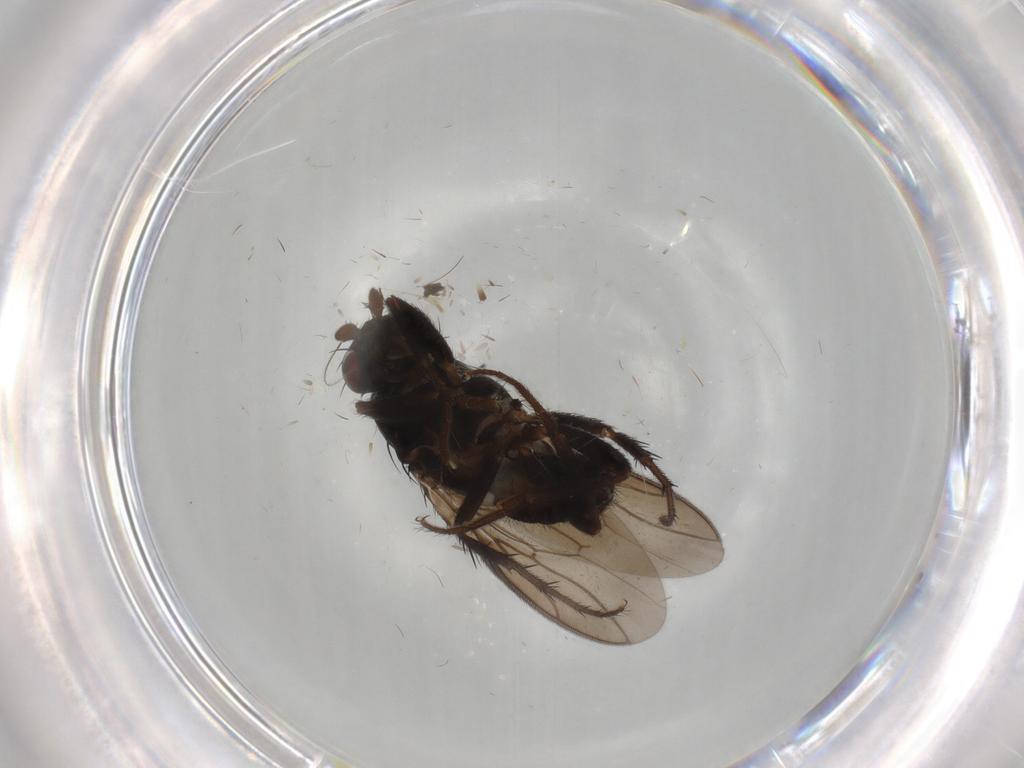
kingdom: Animalia
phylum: Arthropoda
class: Insecta
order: Diptera
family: Sphaeroceridae
